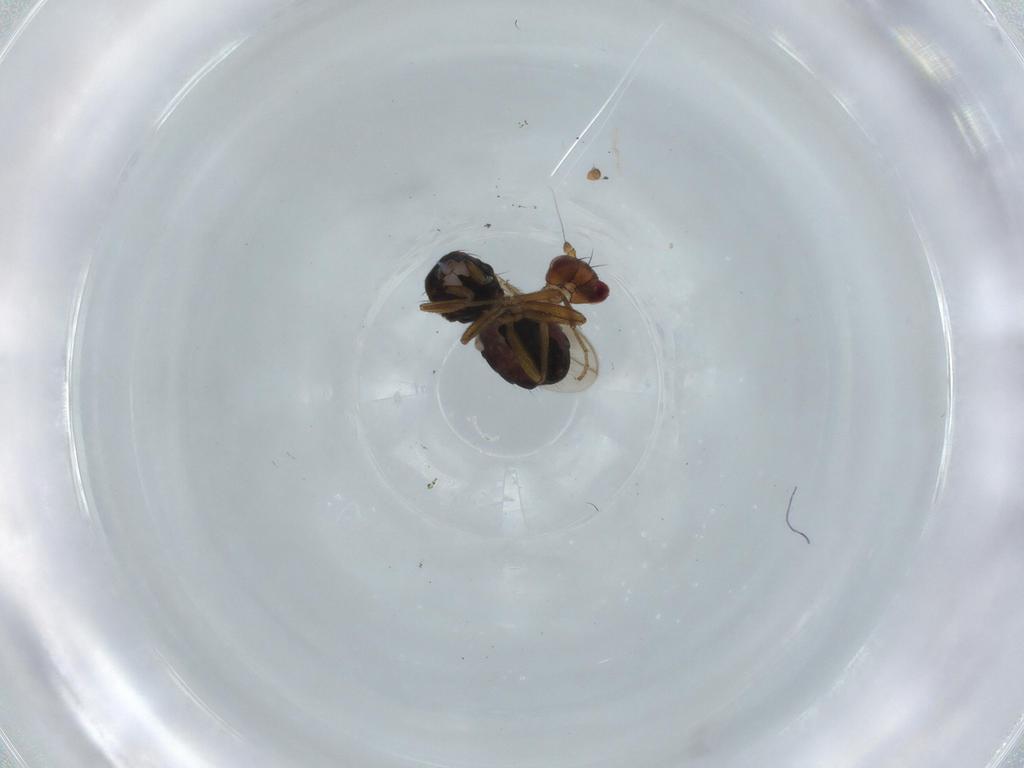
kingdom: Animalia
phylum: Arthropoda
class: Insecta
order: Diptera
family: Sphaeroceridae
